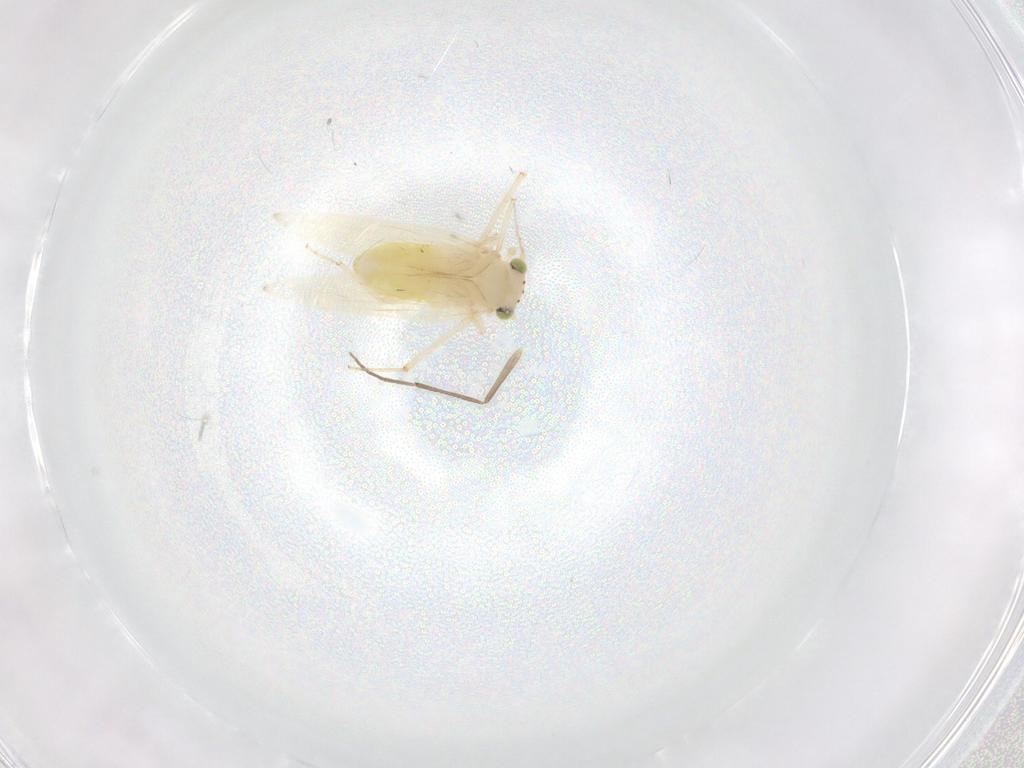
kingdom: Animalia
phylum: Arthropoda
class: Insecta
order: Psocodea
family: Lepidopsocidae
